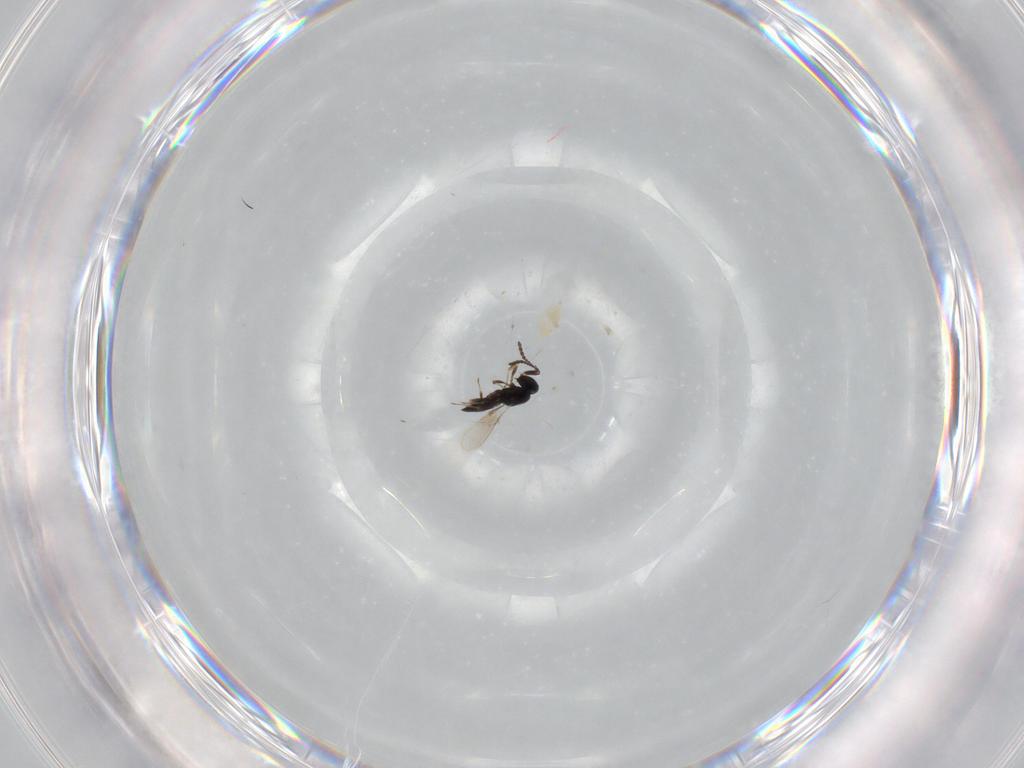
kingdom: Animalia
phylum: Arthropoda
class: Insecta
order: Hymenoptera
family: Scelionidae
